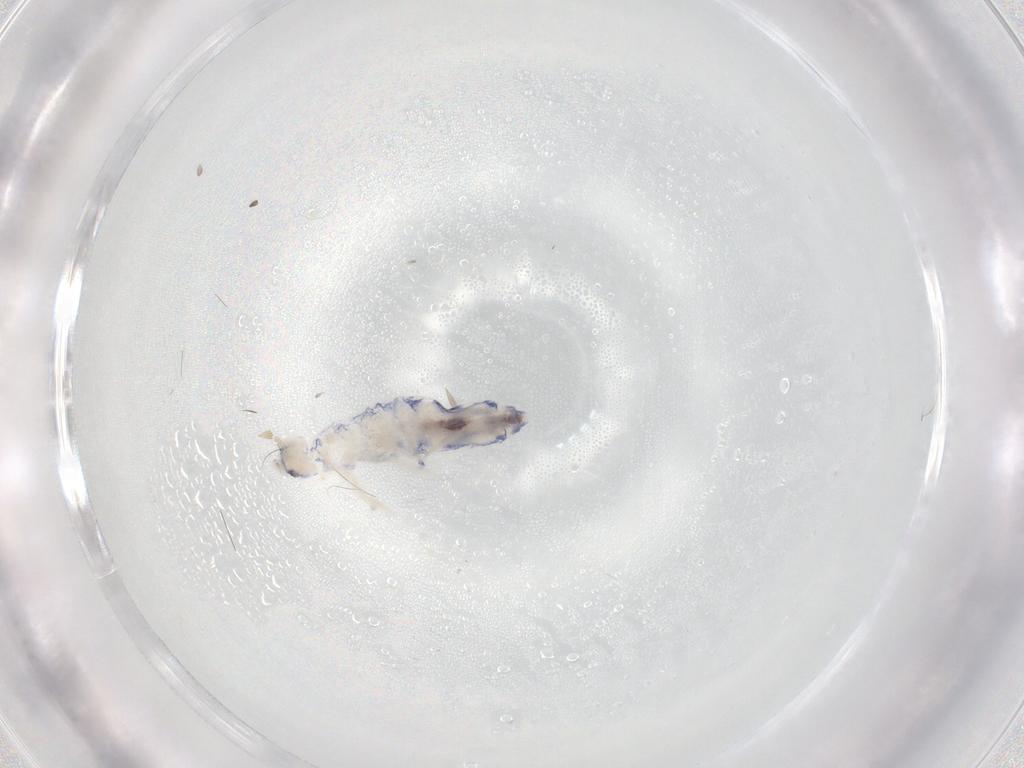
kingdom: Animalia
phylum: Arthropoda
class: Collembola
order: Entomobryomorpha
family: Entomobryidae
